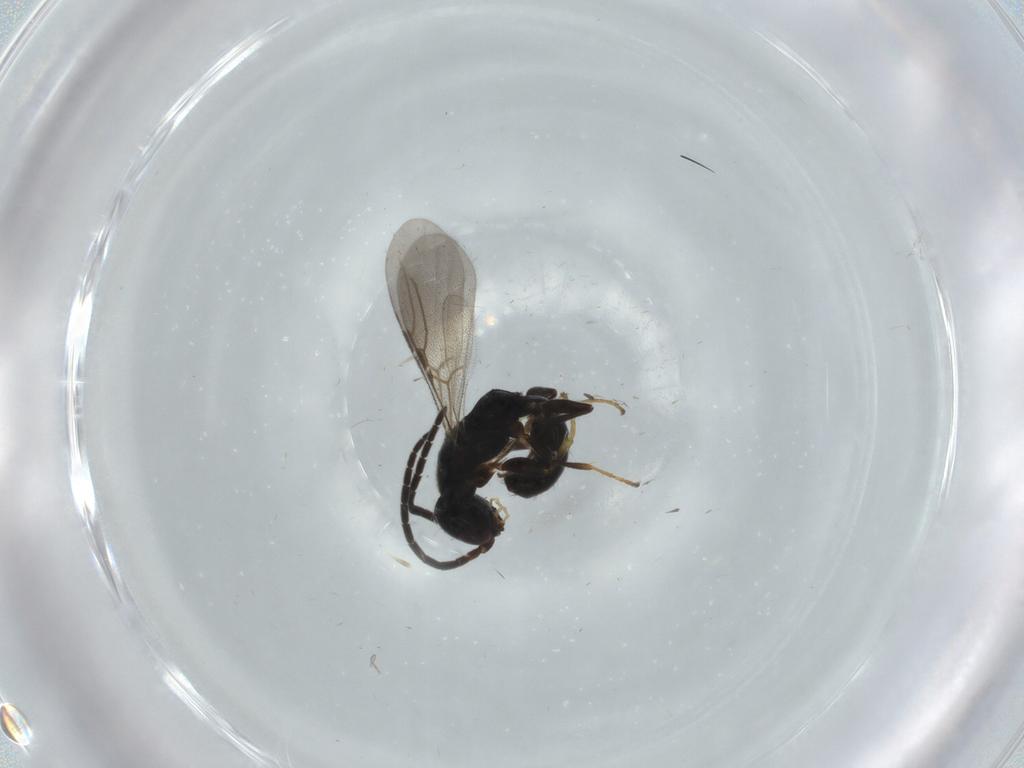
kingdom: Animalia
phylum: Arthropoda
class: Insecta
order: Hymenoptera
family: Bethylidae
